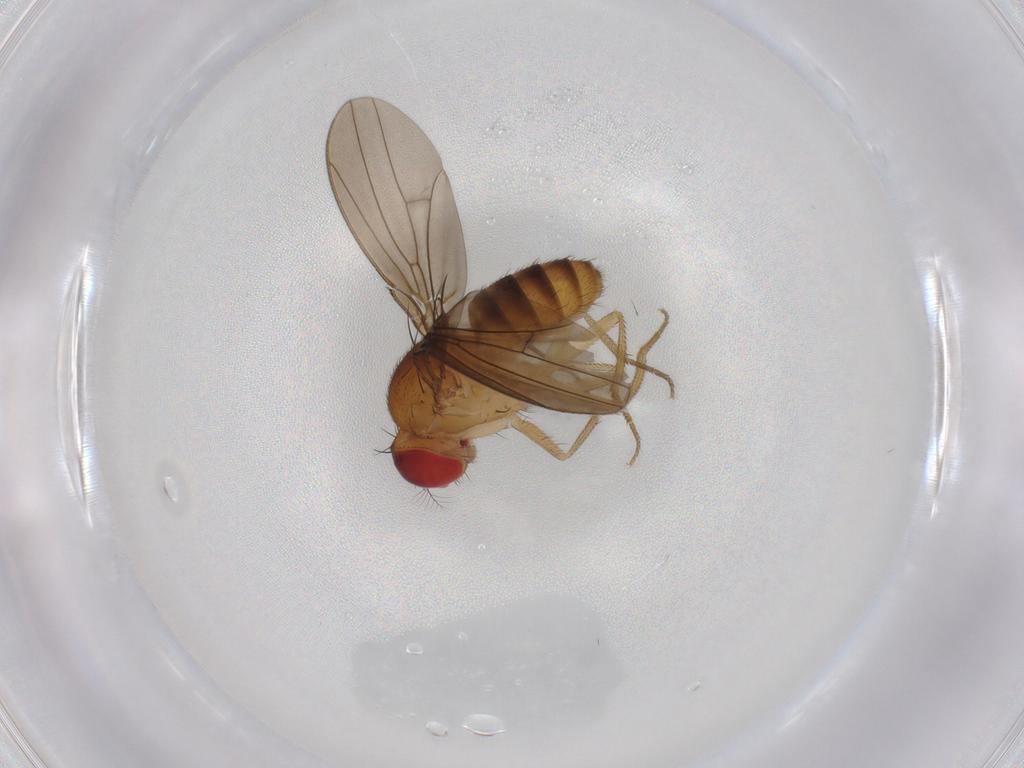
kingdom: Animalia
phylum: Arthropoda
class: Insecta
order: Diptera
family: Drosophilidae
